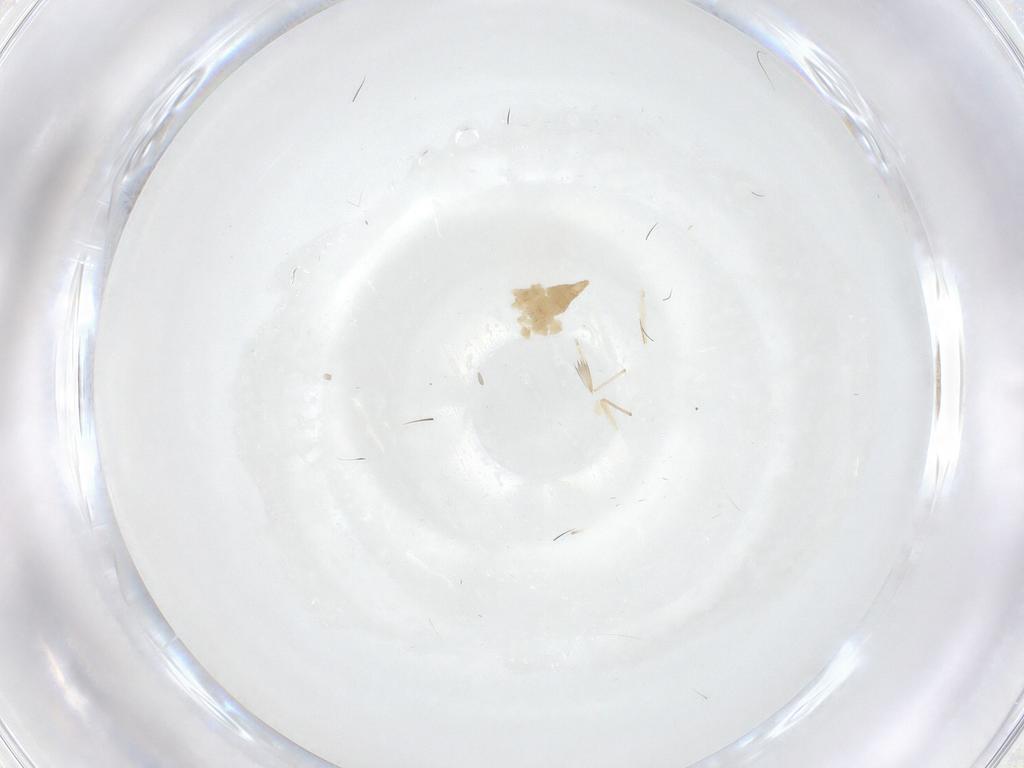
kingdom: Animalia
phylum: Arthropoda
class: Insecta
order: Diptera
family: Chironomidae
